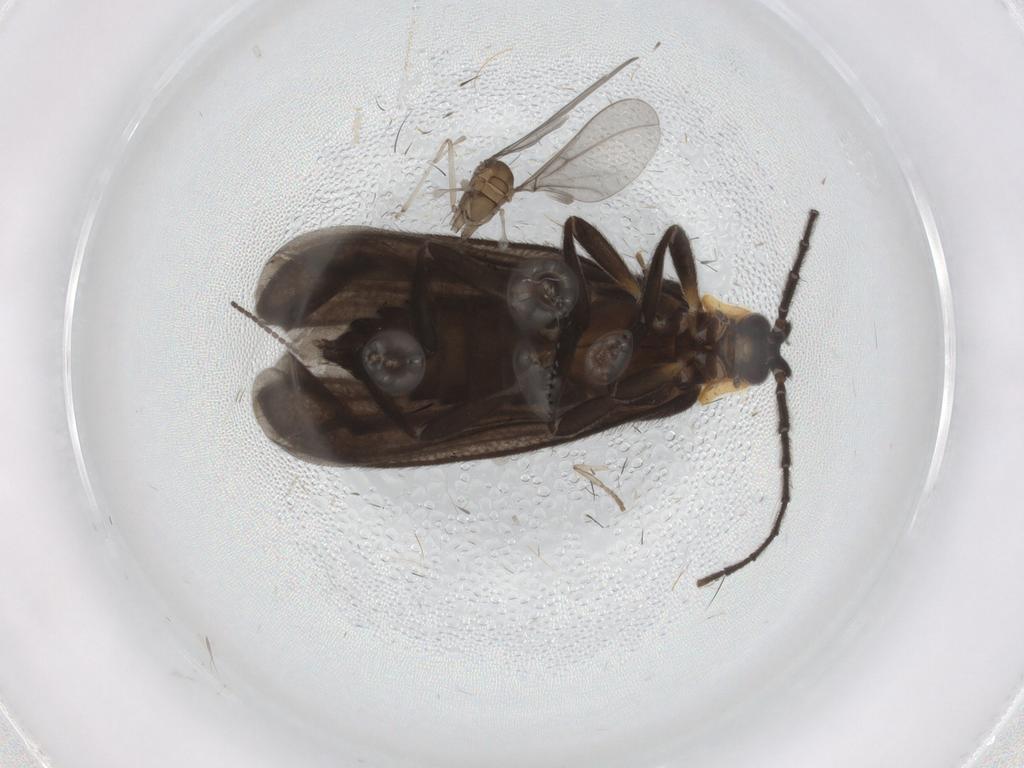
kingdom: Animalia
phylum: Arthropoda
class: Insecta
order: Coleoptera
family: Lycidae
